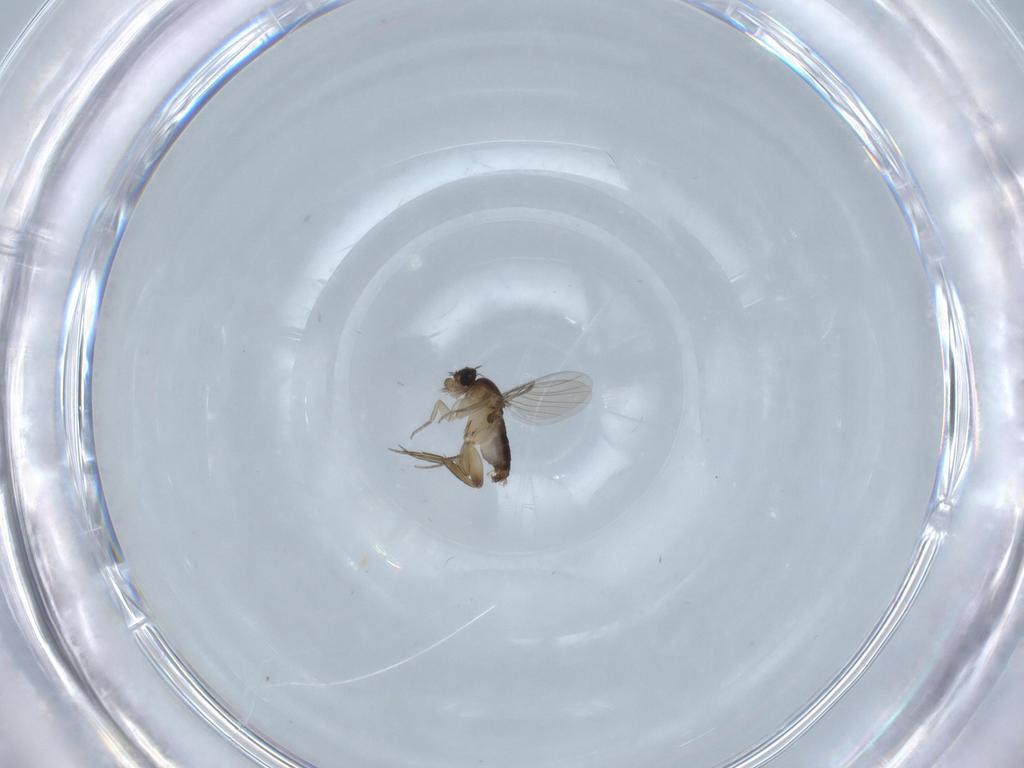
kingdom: Animalia
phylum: Arthropoda
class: Insecta
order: Diptera
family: Phoridae
